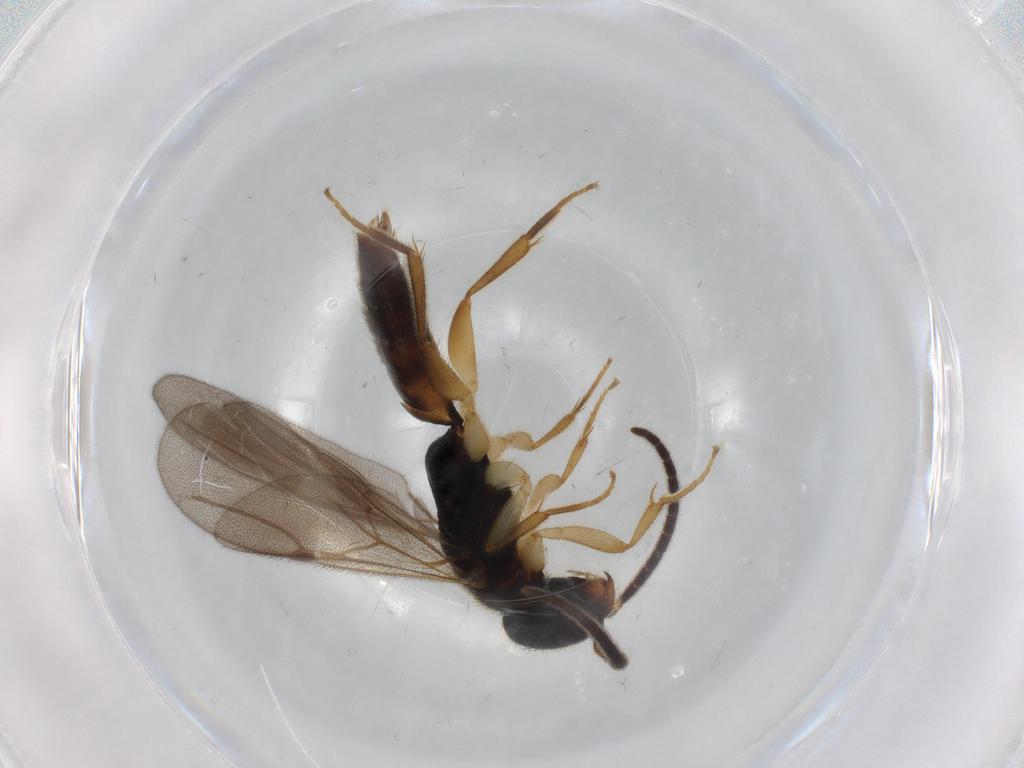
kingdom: Animalia
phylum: Arthropoda
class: Insecta
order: Hymenoptera
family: Bethylidae
